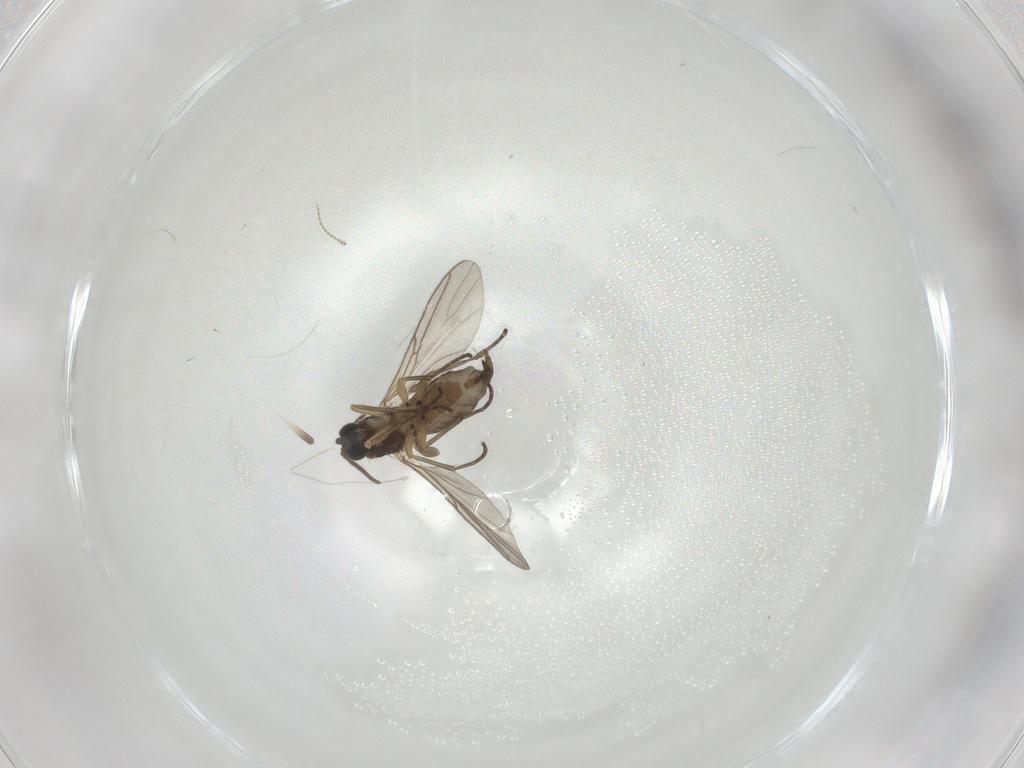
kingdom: Animalia
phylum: Arthropoda
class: Insecta
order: Diptera
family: Sciaridae
